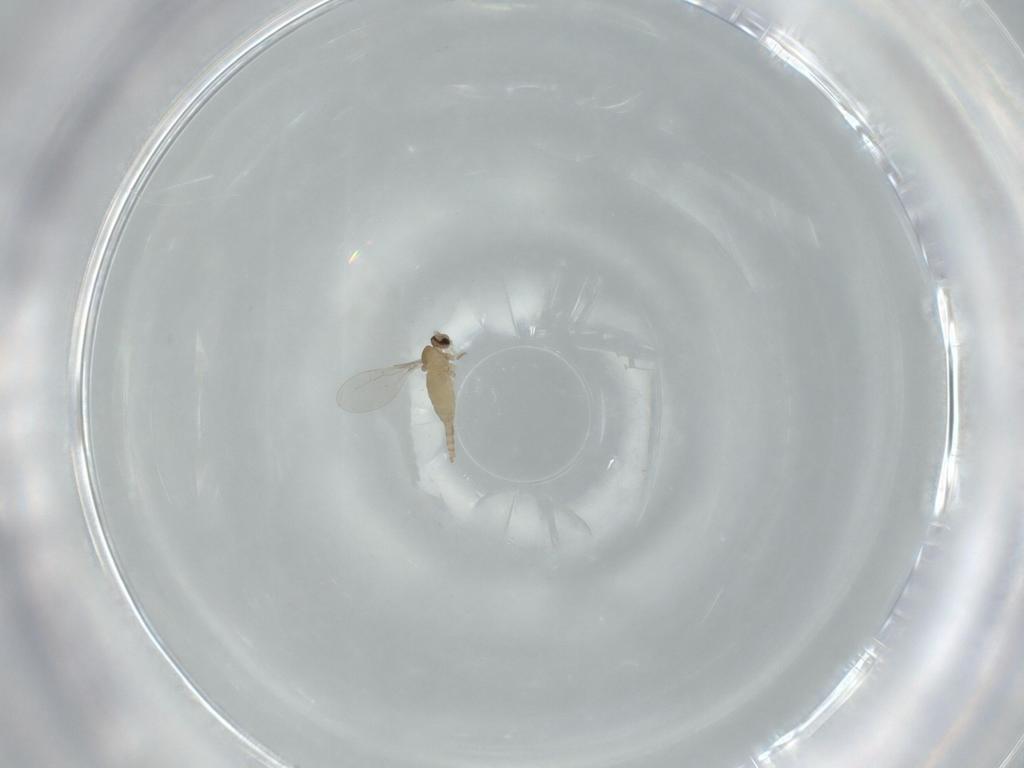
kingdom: Animalia
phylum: Arthropoda
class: Insecta
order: Diptera
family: Cecidomyiidae
